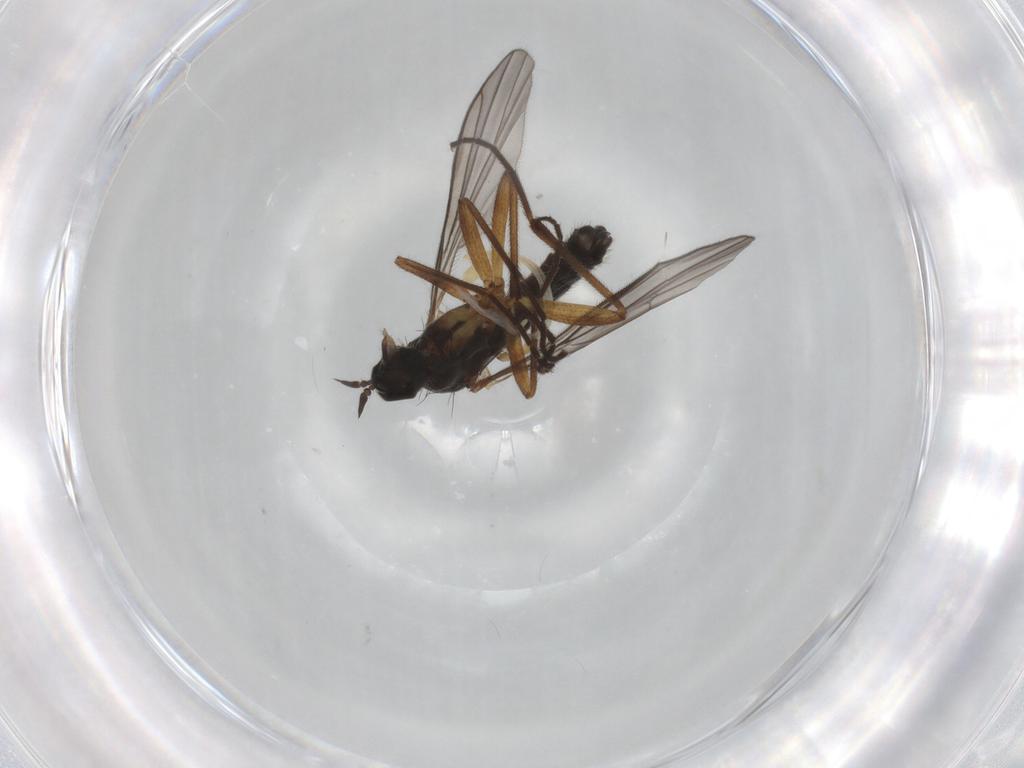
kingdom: Animalia
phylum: Arthropoda
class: Insecta
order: Diptera
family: Empididae
